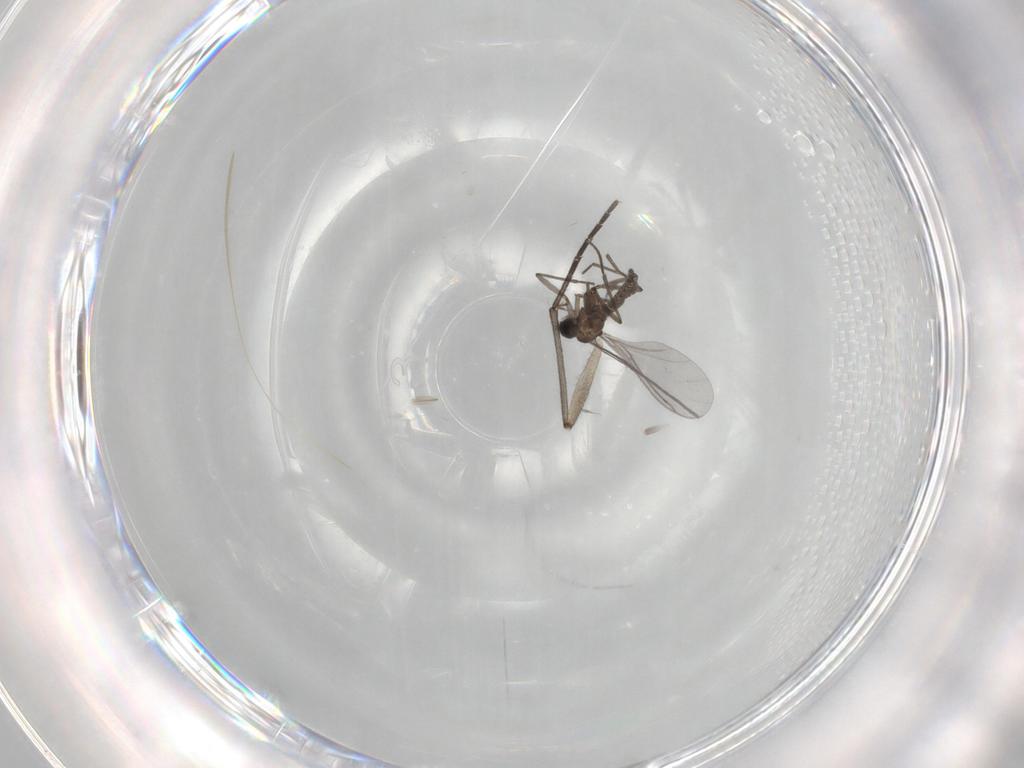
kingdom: Animalia
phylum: Arthropoda
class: Insecta
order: Diptera
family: Sciaridae
